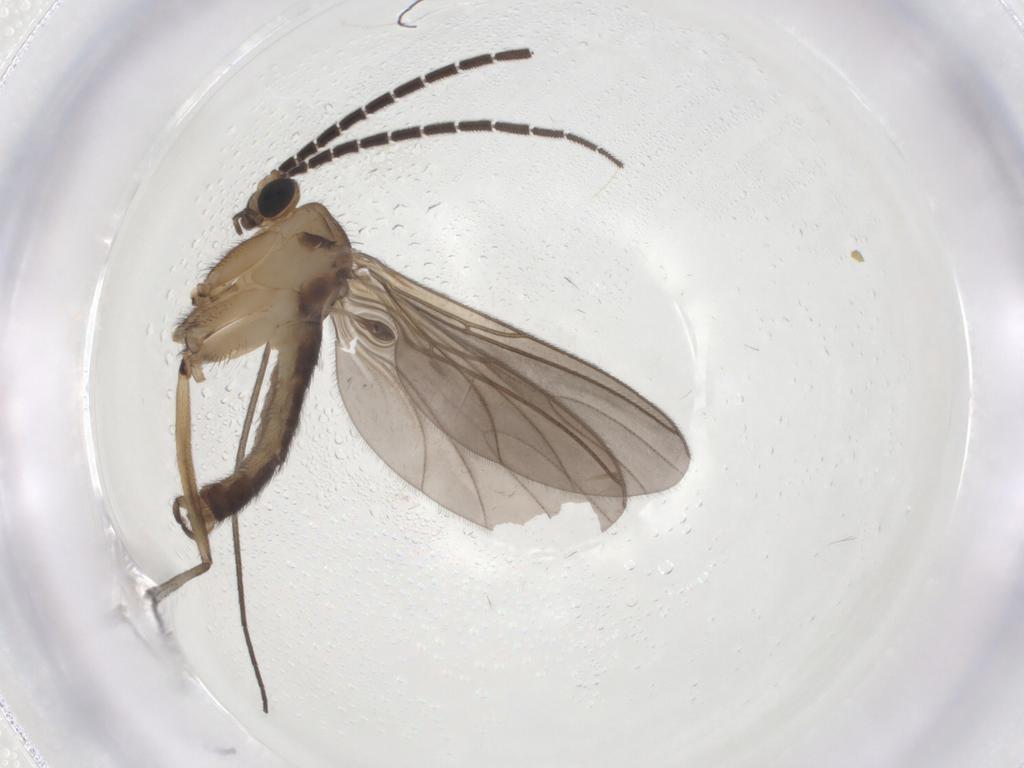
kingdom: Animalia
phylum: Arthropoda
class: Insecta
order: Diptera
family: Sciaridae
